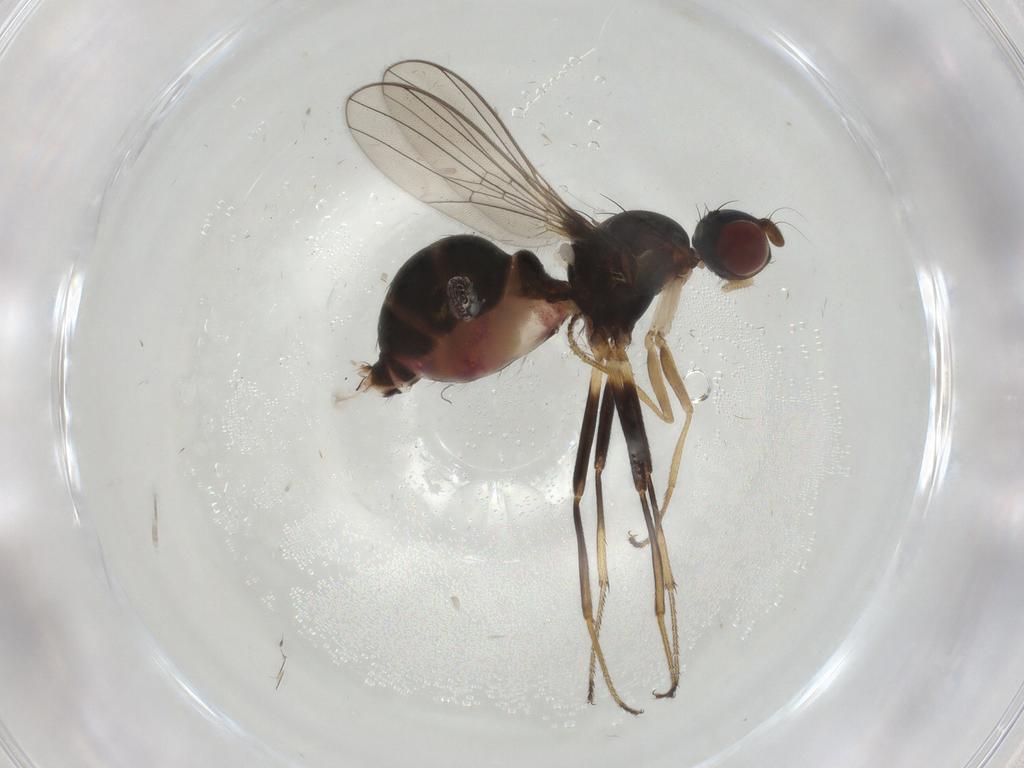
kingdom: Animalia
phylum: Arthropoda
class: Insecta
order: Diptera
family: Sepsidae
